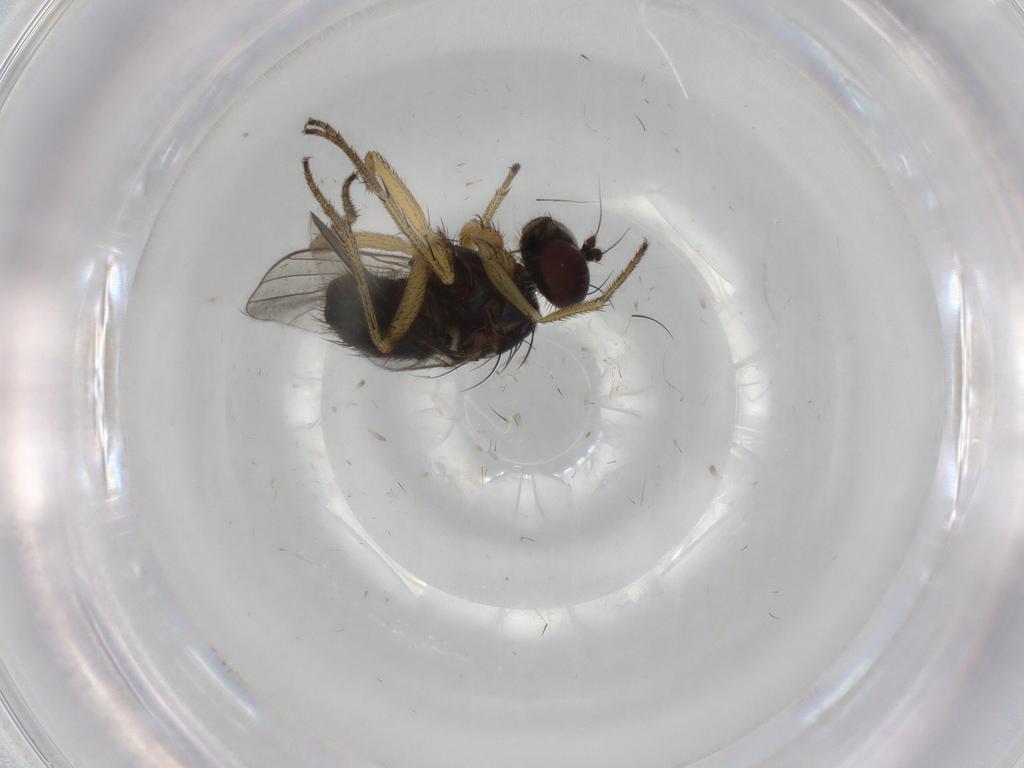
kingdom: Animalia
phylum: Arthropoda
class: Insecta
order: Diptera
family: Dolichopodidae
